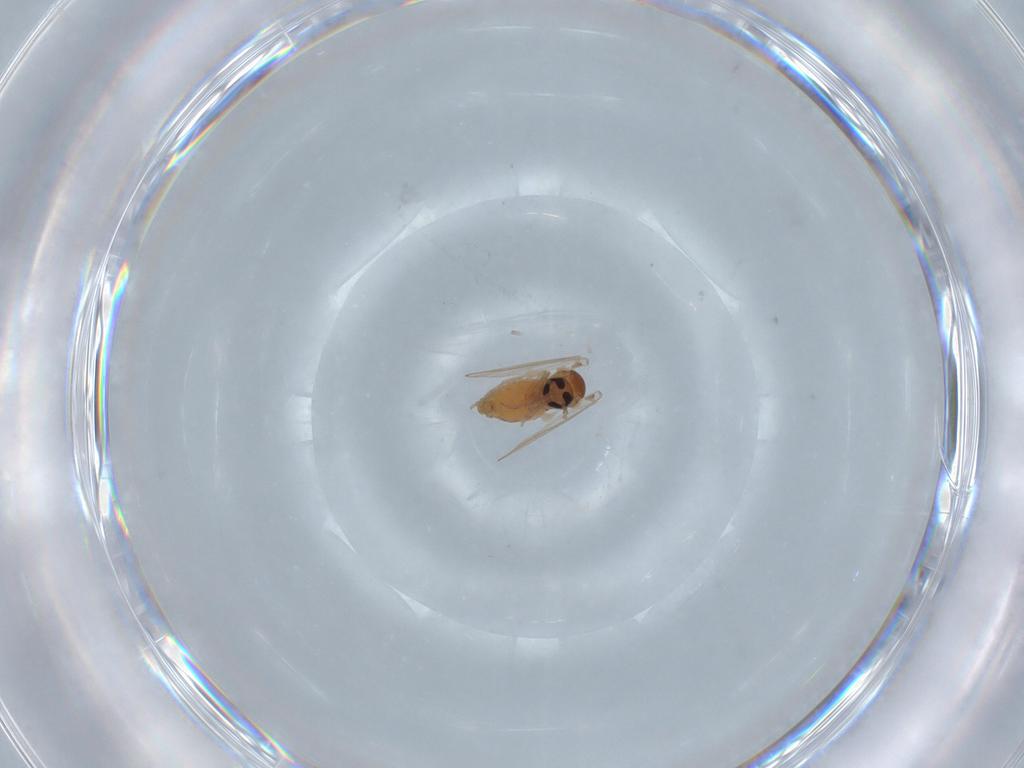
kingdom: Animalia
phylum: Arthropoda
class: Insecta
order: Diptera
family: Psychodidae
